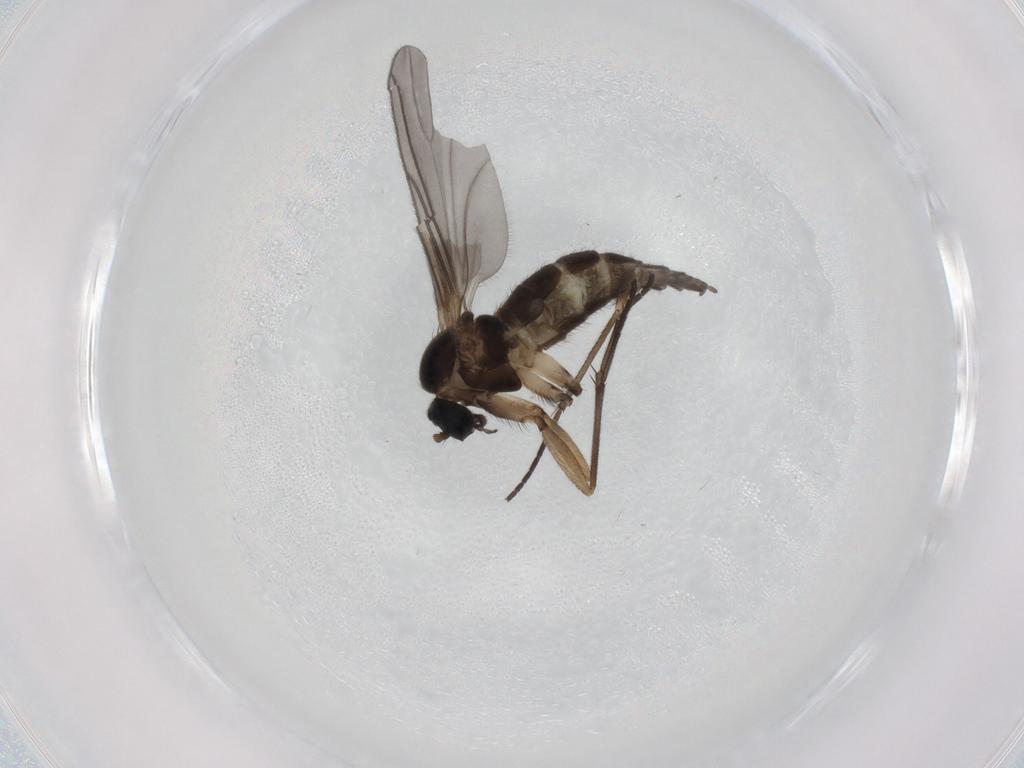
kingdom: Animalia
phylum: Arthropoda
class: Insecta
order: Diptera
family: Sciaridae
